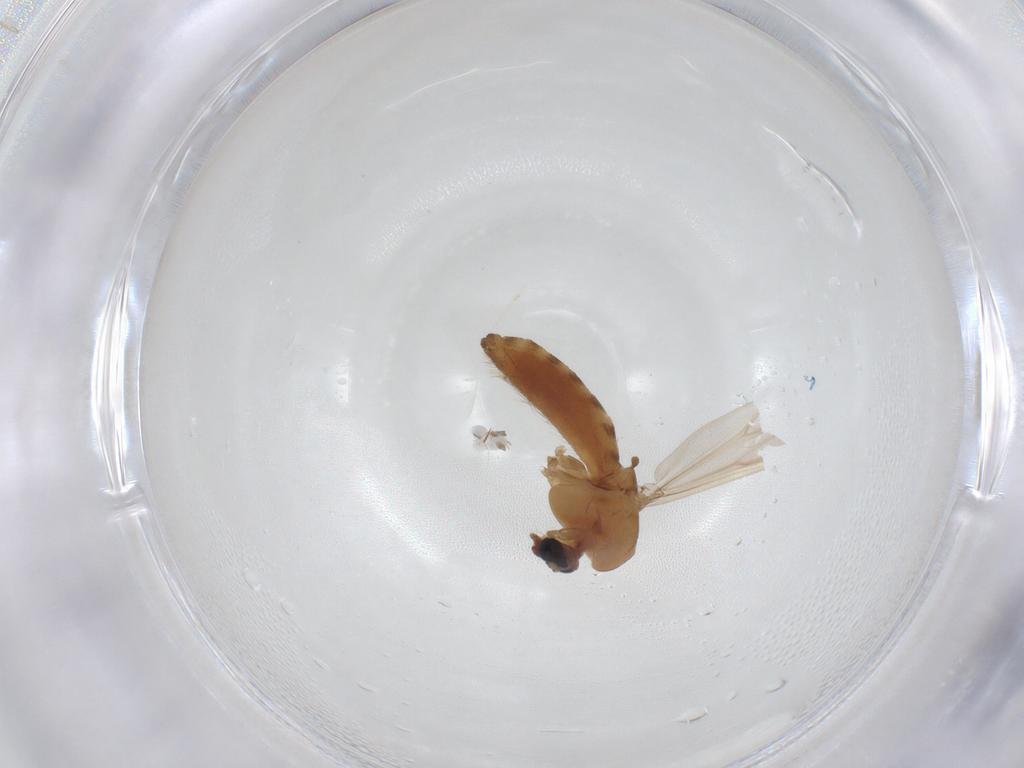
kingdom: Animalia
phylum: Arthropoda
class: Insecta
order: Diptera
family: Chironomidae
